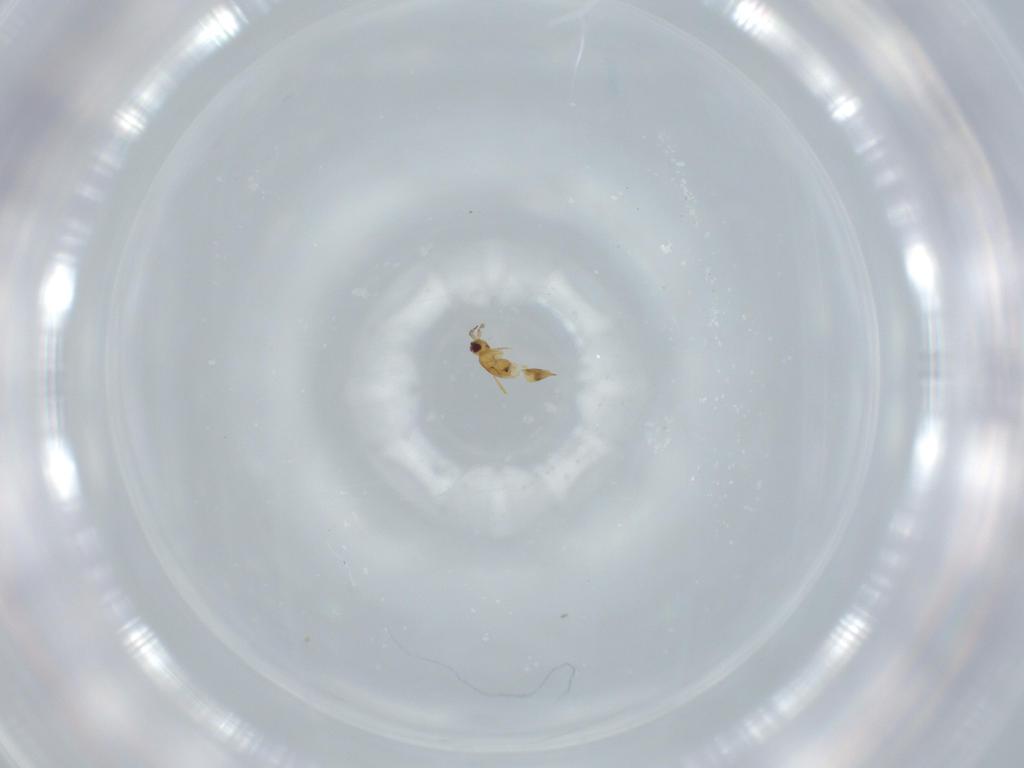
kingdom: Animalia
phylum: Arthropoda
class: Insecta
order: Hymenoptera
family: Mymaridae
